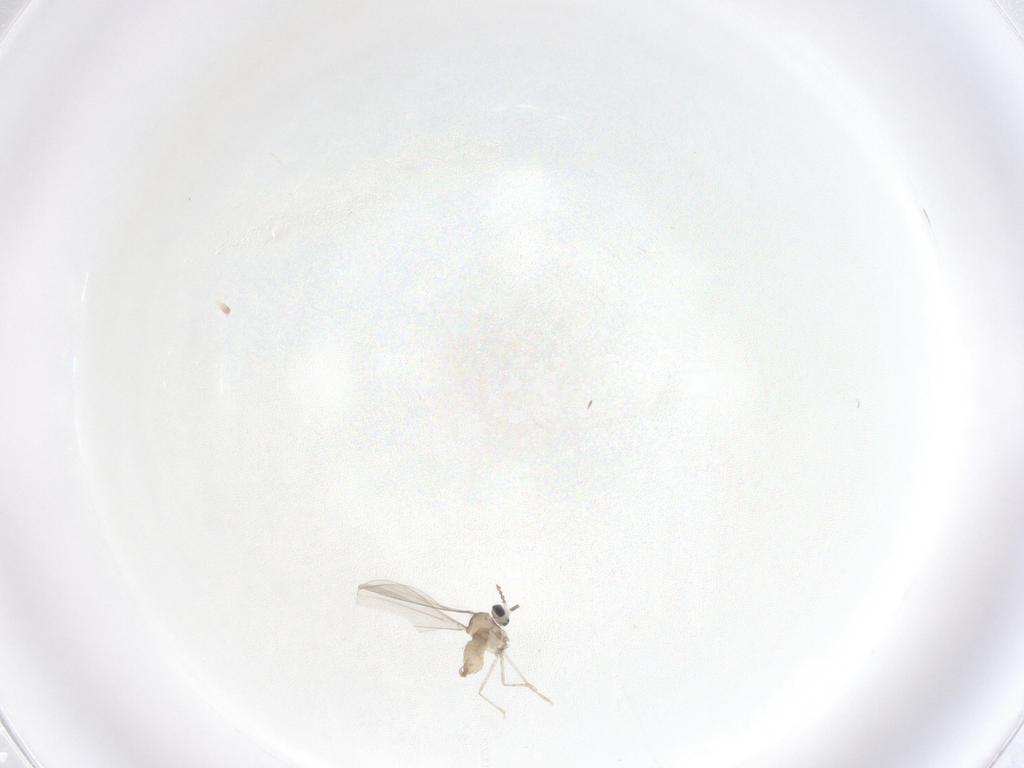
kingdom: Animalia
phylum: Arthropoda
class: Insecta
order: Diptera
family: Cecidomyiidae
